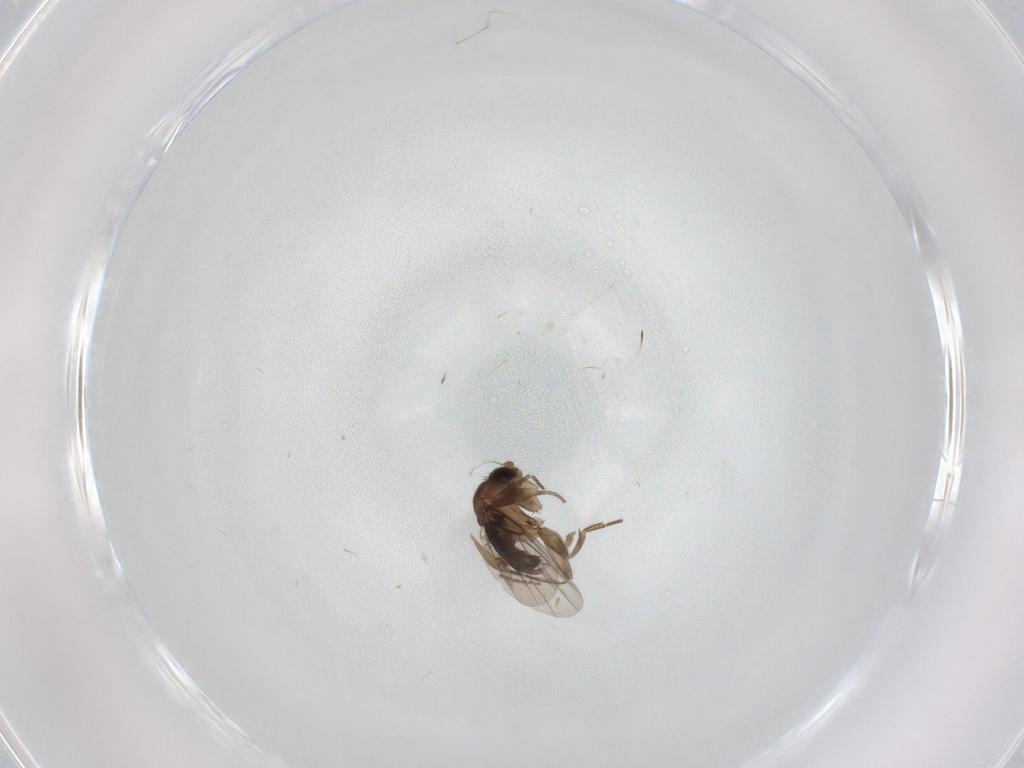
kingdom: Animalia
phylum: Arthropoda
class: Insecta
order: Diptera
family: Phoridae
